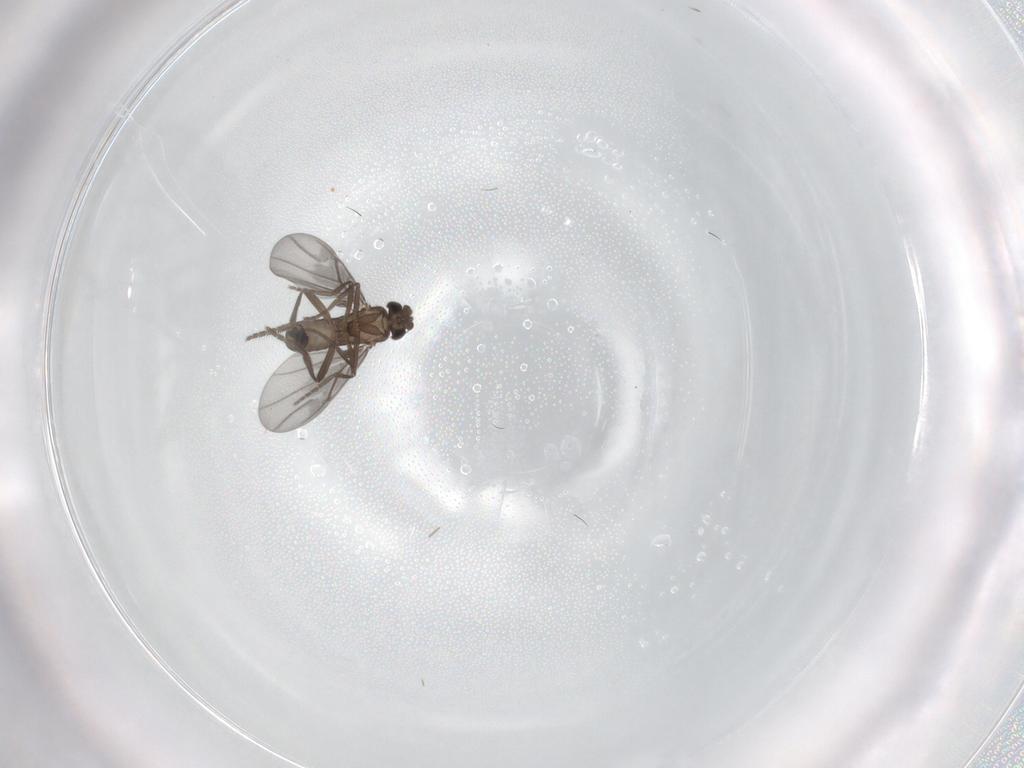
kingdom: Animalia
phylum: Arthropoda
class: Insecta
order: Diptera
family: Phoridae
